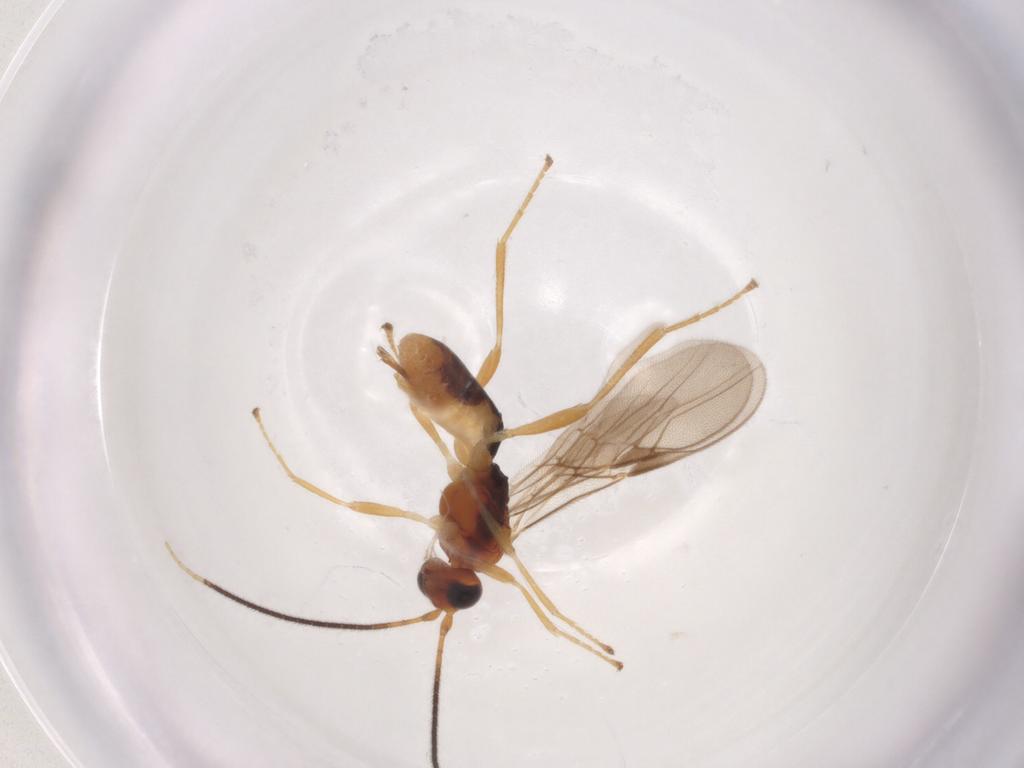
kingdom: Animalia
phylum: Arthropoda
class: Insecta
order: Hymenoptera
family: Braconidae
